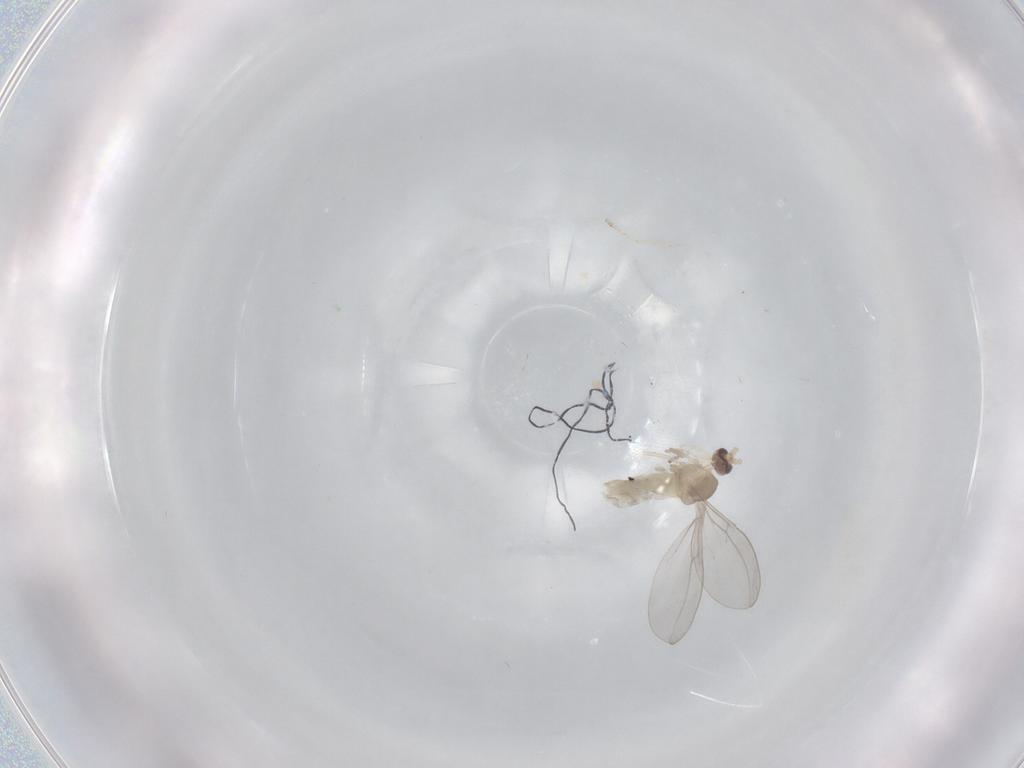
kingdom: Animalia
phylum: Arthropoda
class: Insecta
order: Diptera
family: Cecidomyiidae
